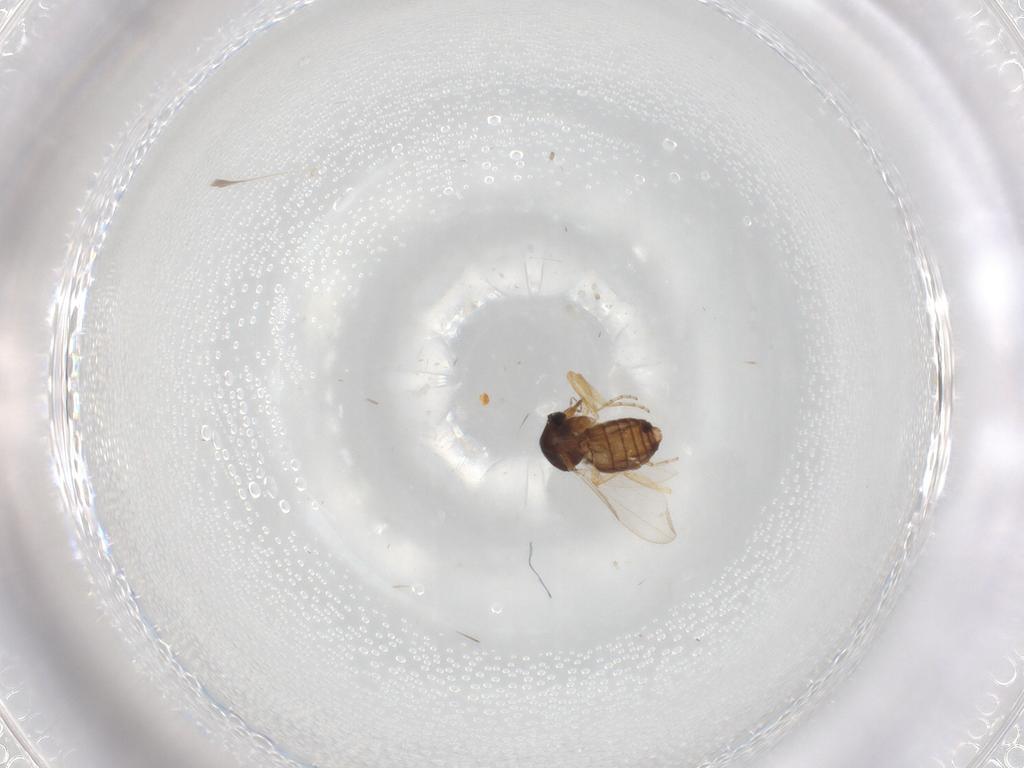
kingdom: Animalia
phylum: Arthropoda
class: Insecta
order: Diptera
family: Ceratopogonidae
